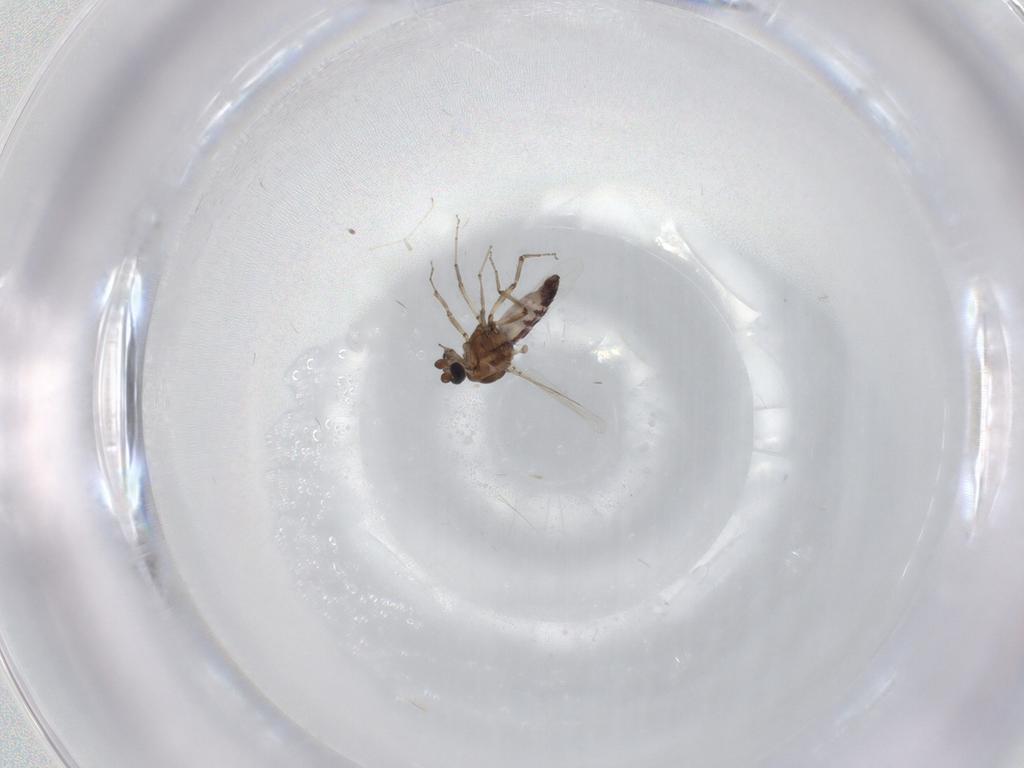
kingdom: Animalia
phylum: Arthropoda
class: Insecta
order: Diptera
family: Ceratopogonidae
